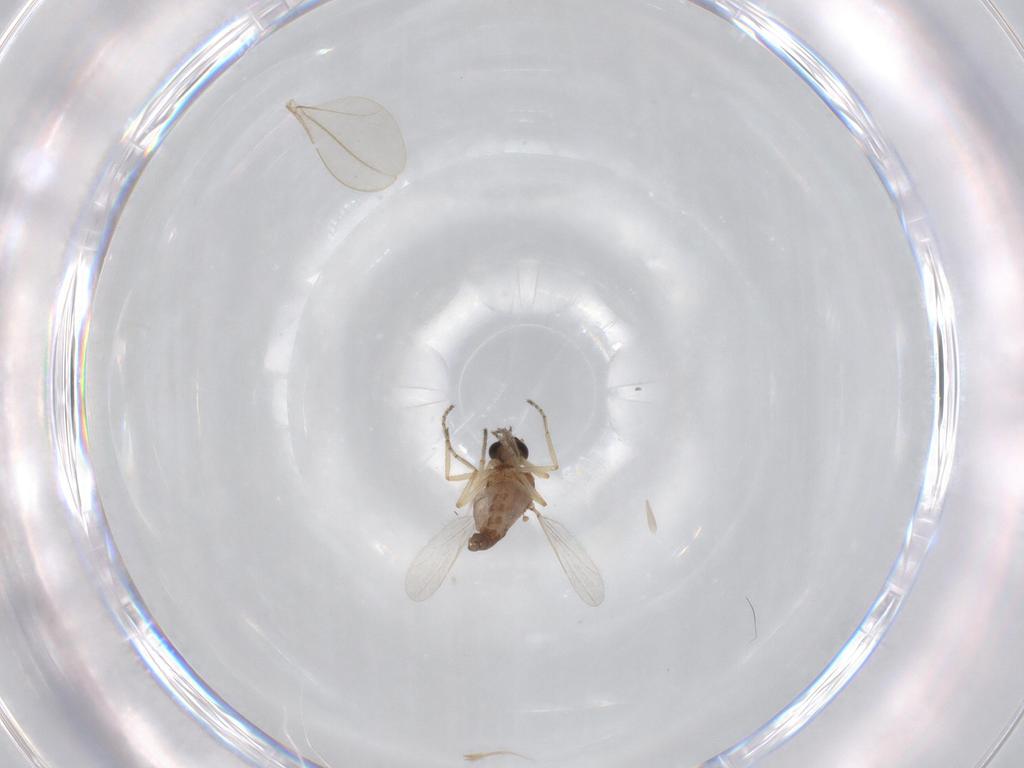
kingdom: Animalia
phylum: Arthropoda
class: Insecta
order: Diptera
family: Ceratopogonidae
